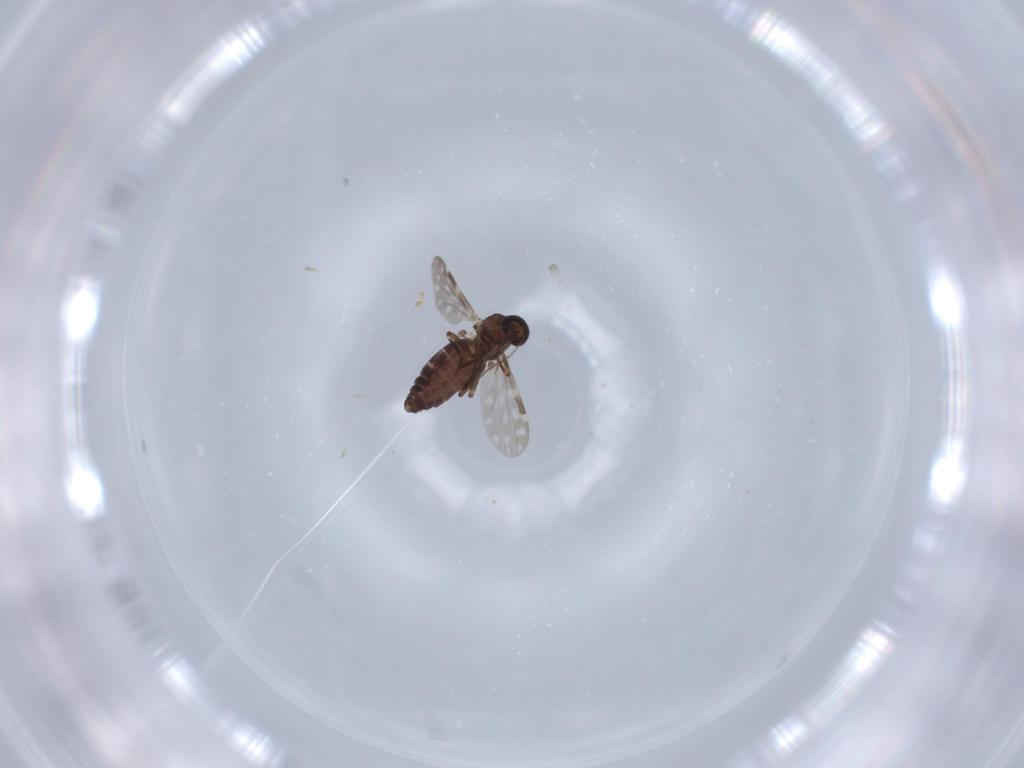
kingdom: Animalia
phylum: Arthropoda
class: Insecta
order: Diptera
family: Ceratopogonidae
